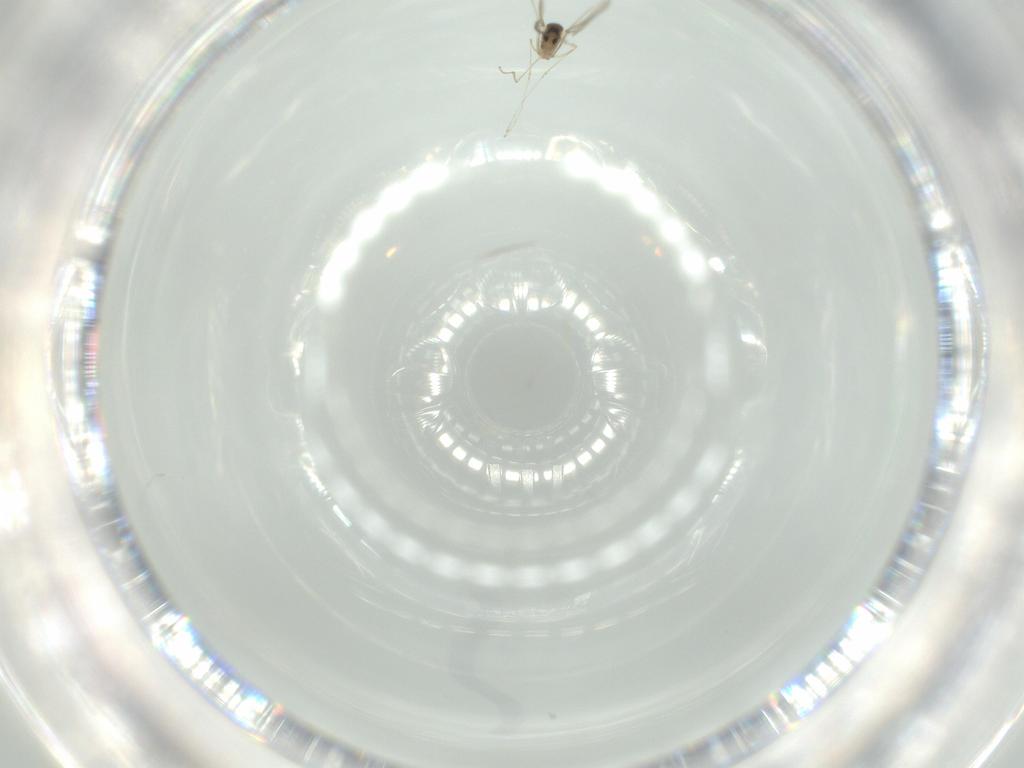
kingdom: Animalia
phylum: Arthropoda
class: Insecta
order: Diptera
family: Cecidomyiidae
